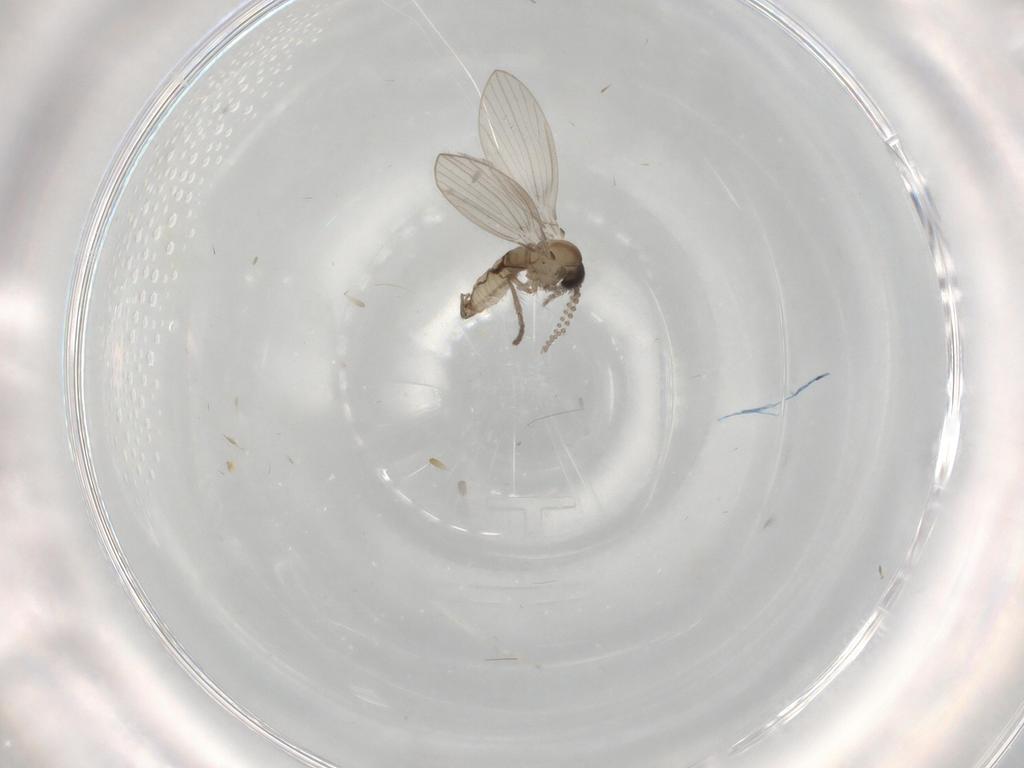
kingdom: Animalia
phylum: Arthropoda
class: Insecta
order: Diptera
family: Psychodidae
